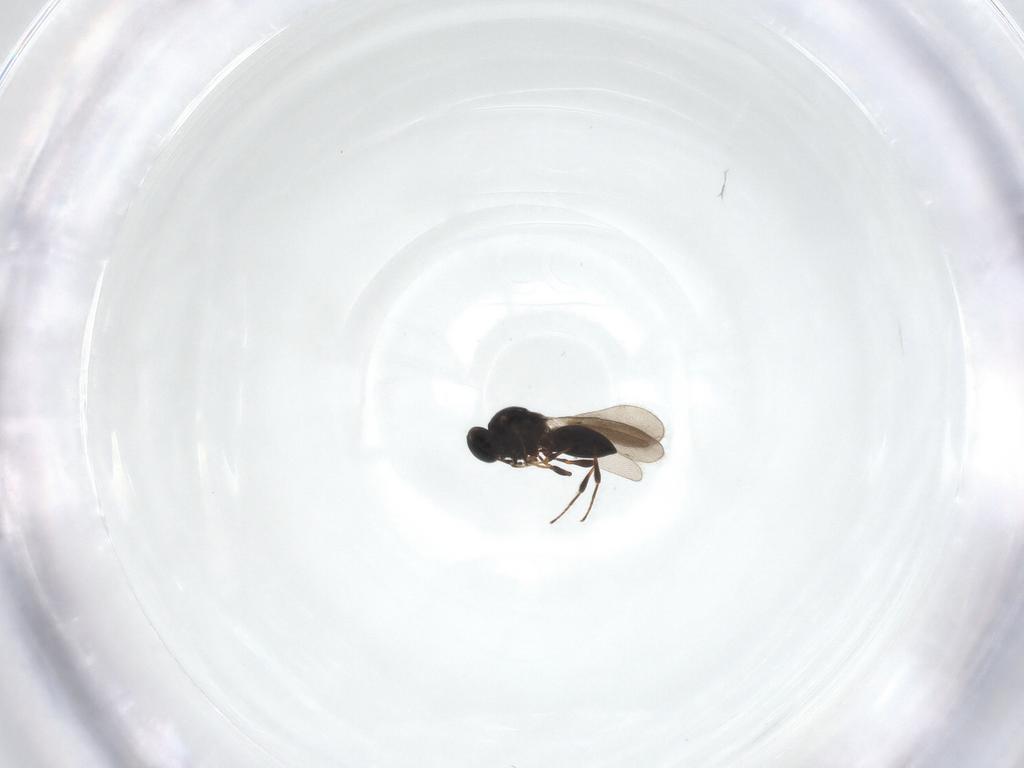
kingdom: Animalia
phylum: Arthropoda
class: Insecta
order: Hymenoptera
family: Platygastridae
